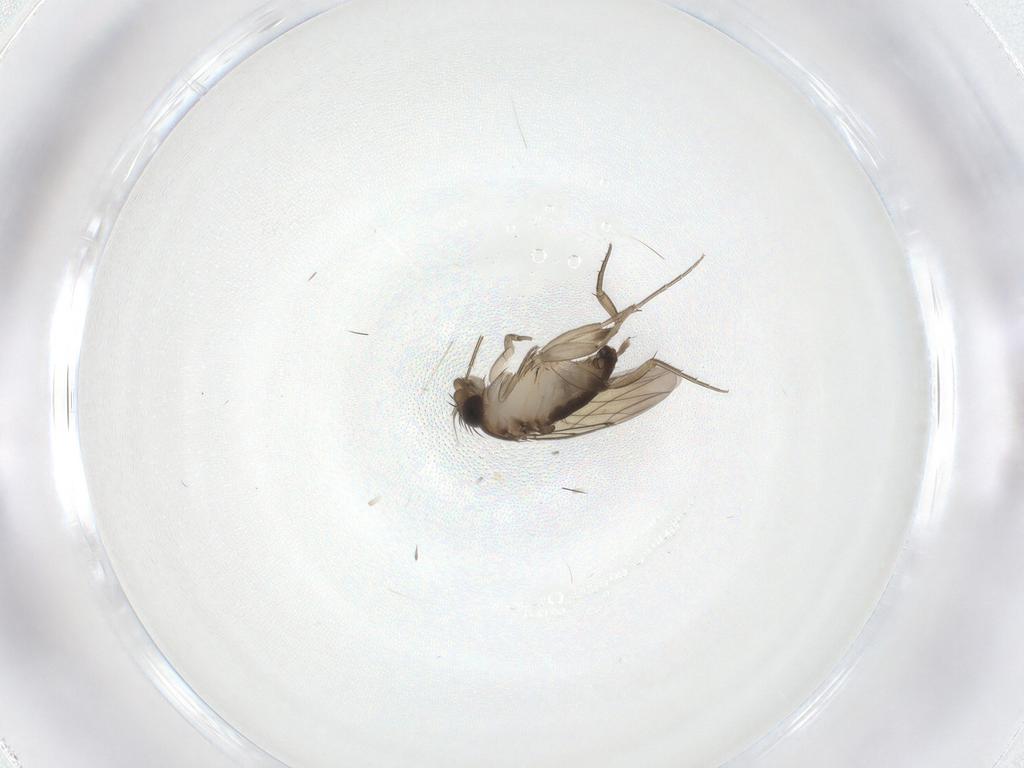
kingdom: Animalia
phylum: Arthropoda
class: Insecta
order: Diptera
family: Phoridae
